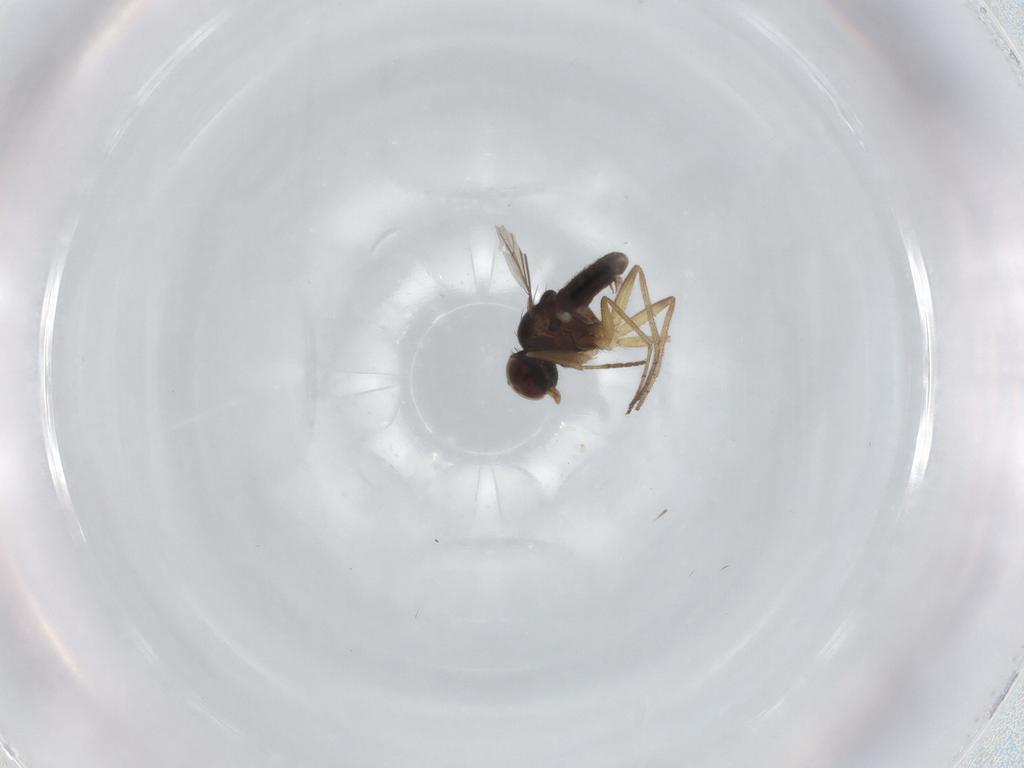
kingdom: Animalia
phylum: Arthropoda
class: Insecta
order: Diptera
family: Dolichopodidae
